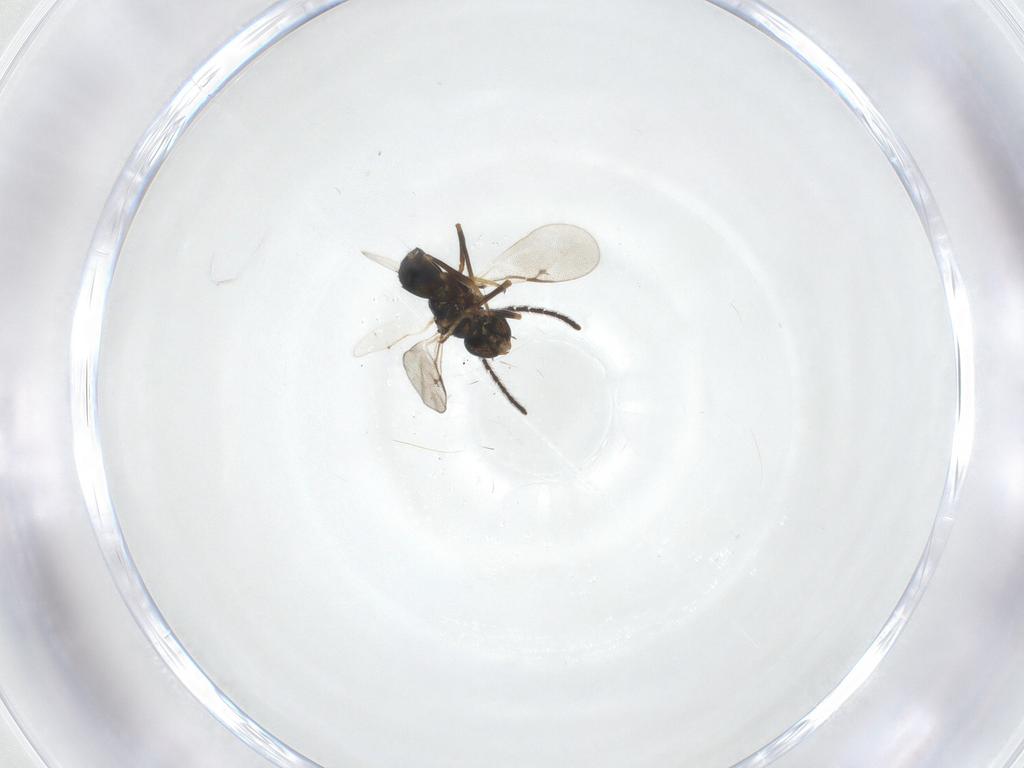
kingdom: Animalia
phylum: Arthropoda
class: Insecta
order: Hymenoptera
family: Encyrtidae
